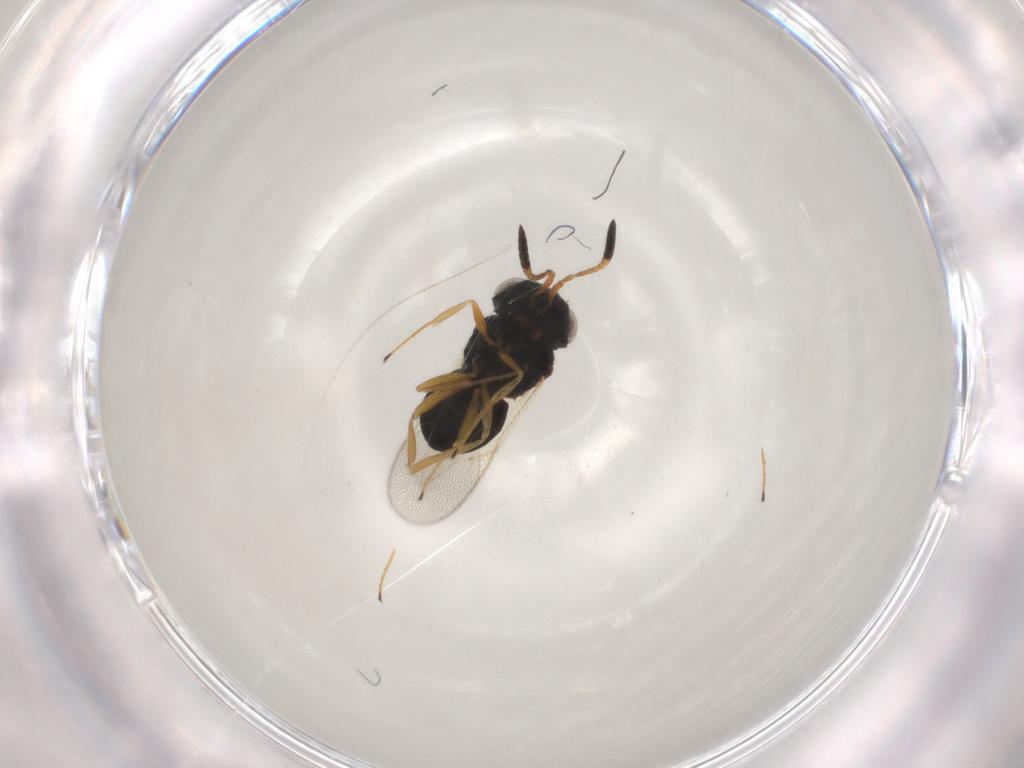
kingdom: Animalia
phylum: Arthropoda
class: Insecta
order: Hymenoptera
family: Scelionidae
